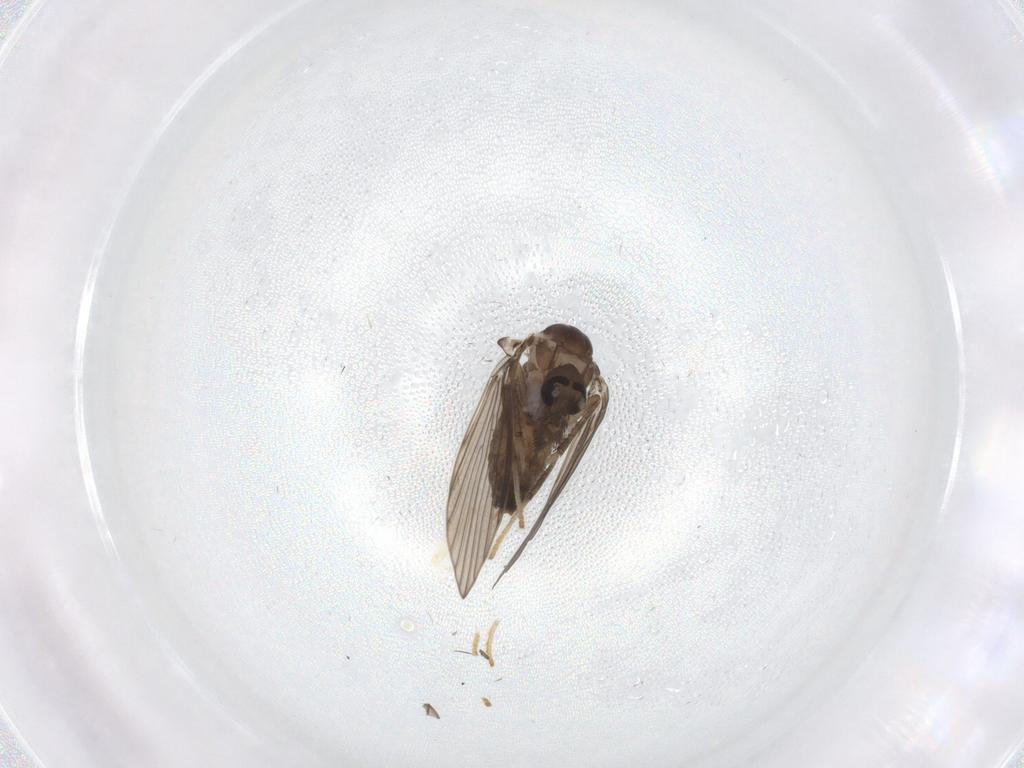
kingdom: Animalia
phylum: Arthropoda
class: Insecta
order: Diptera
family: Psychodidae
